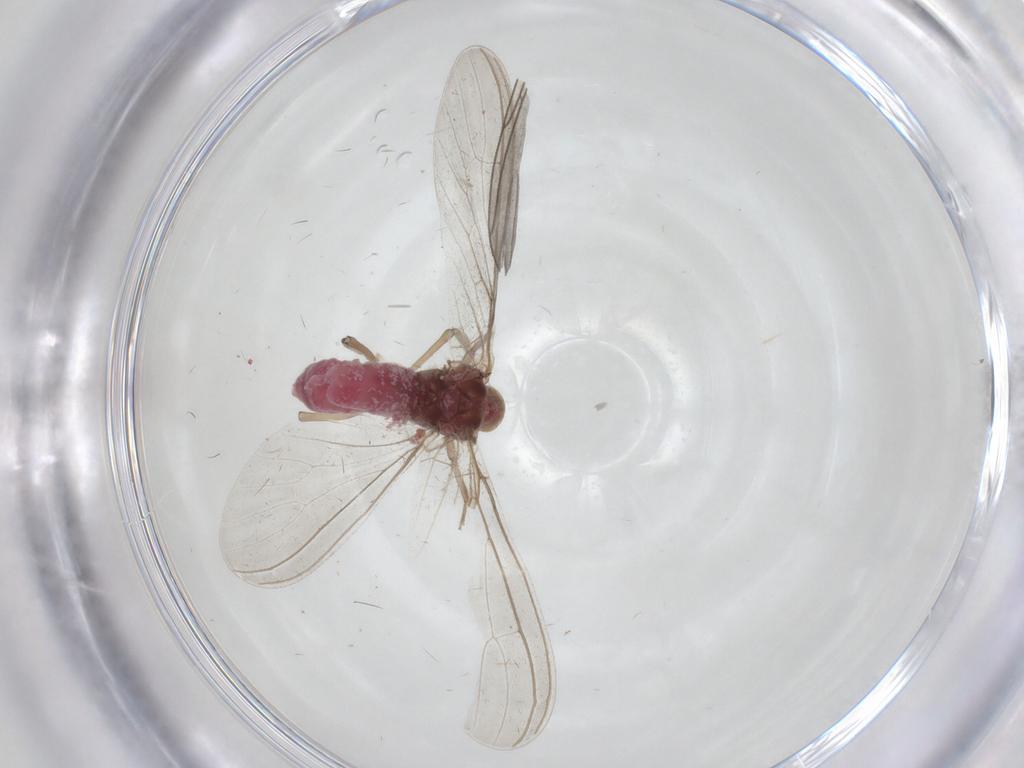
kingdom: Animalia
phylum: Arthropoda
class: Insecta
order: Neuroptera
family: Coniopterygidae
